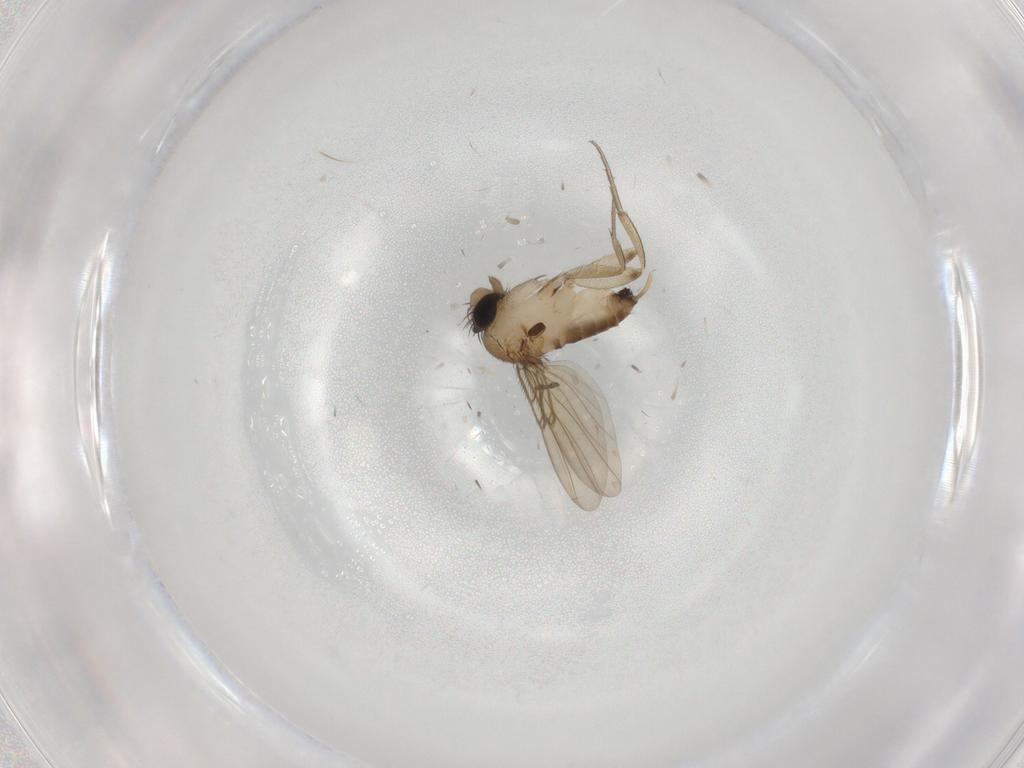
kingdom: Animalia
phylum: Arthropoda
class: Insecta
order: Diptera
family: Phoridae
